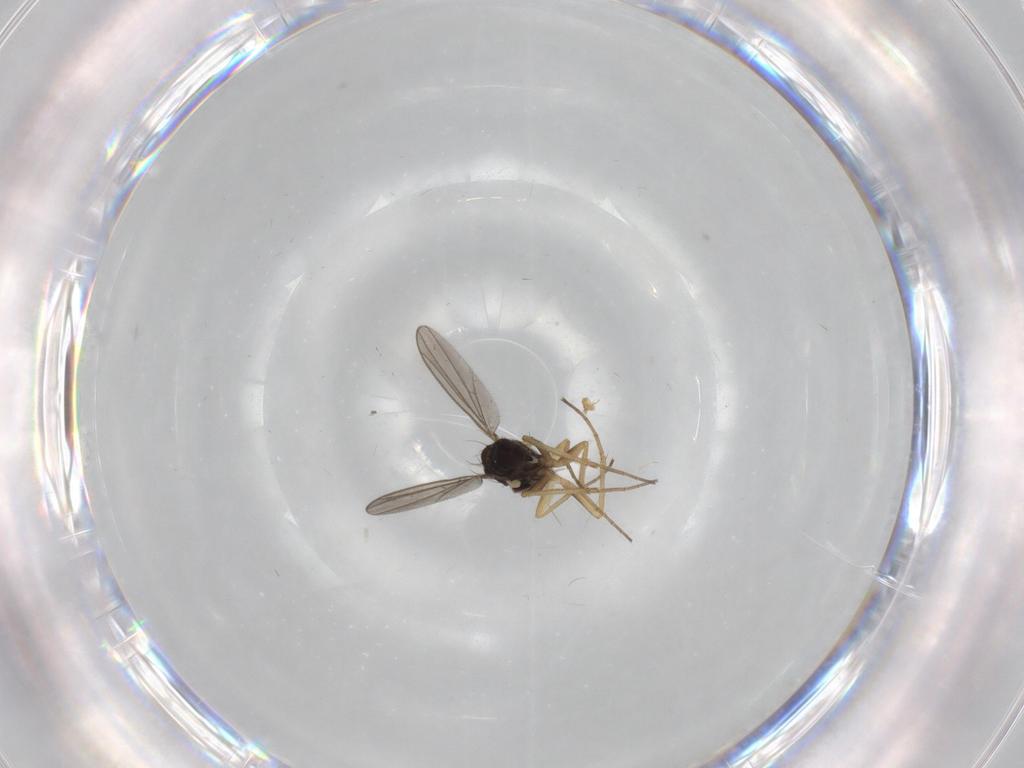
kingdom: Animalia
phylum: Arthropoda
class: Insecta
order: Diptera
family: Dolichopodidae
